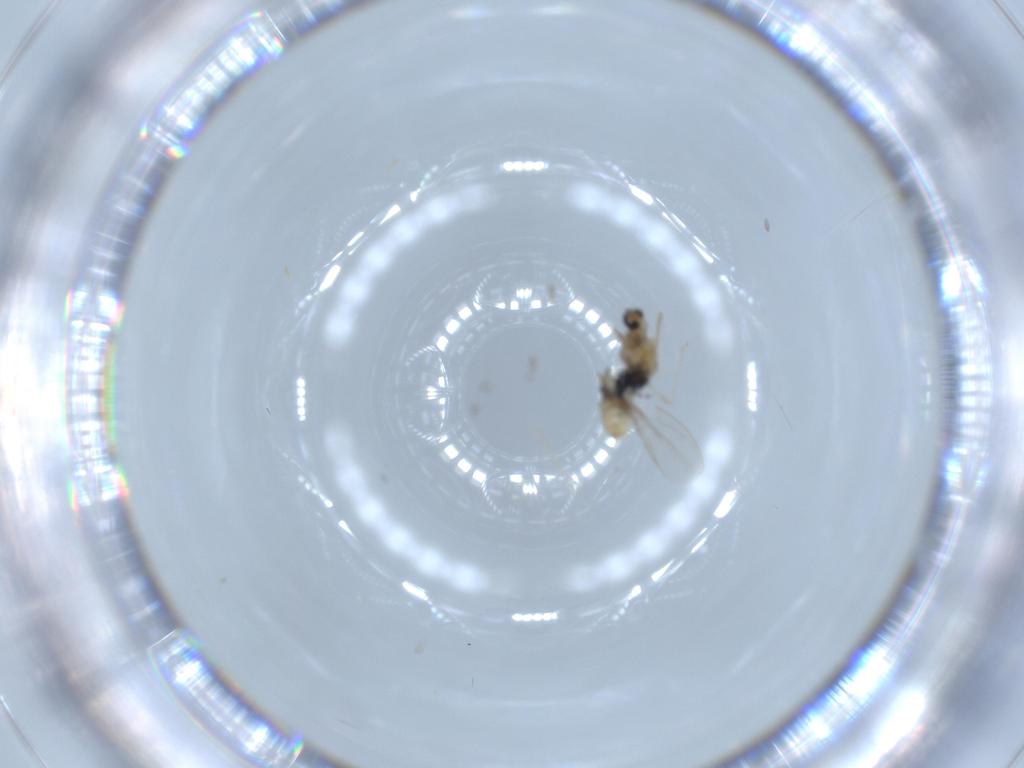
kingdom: Animalia
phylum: Arthropoda
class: Insecta
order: Diptera
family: Cecidomyiidae
